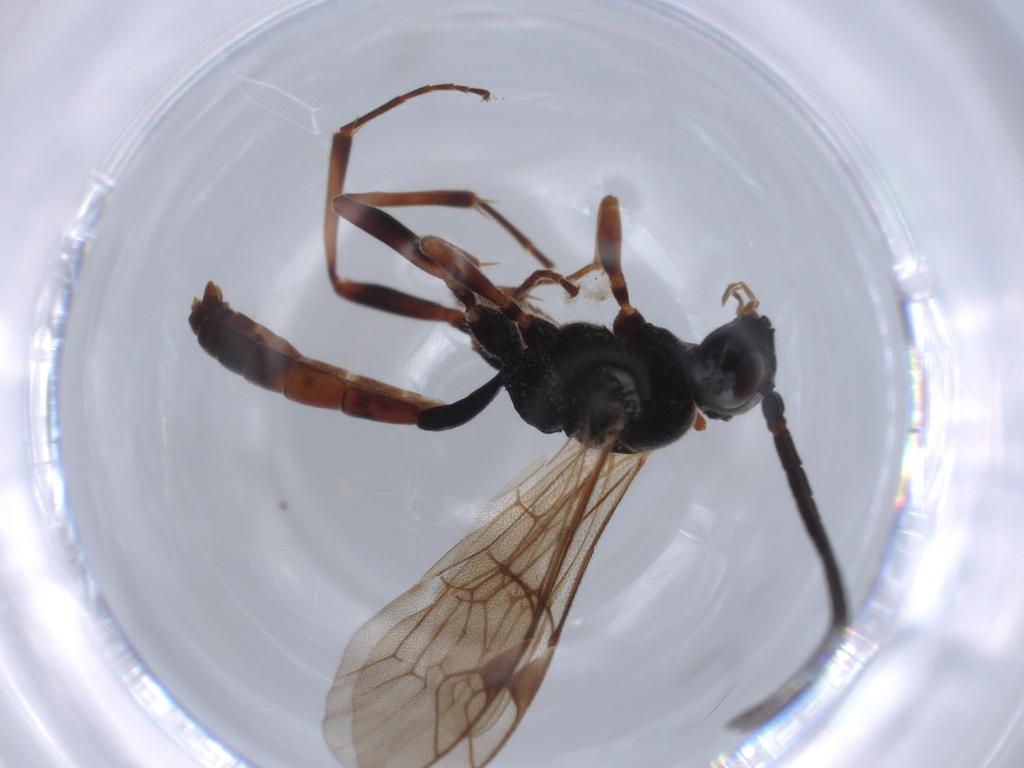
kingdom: Animalia
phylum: Arthropoda
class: Insecta
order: Hymenoptera
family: Ichneumonidae
